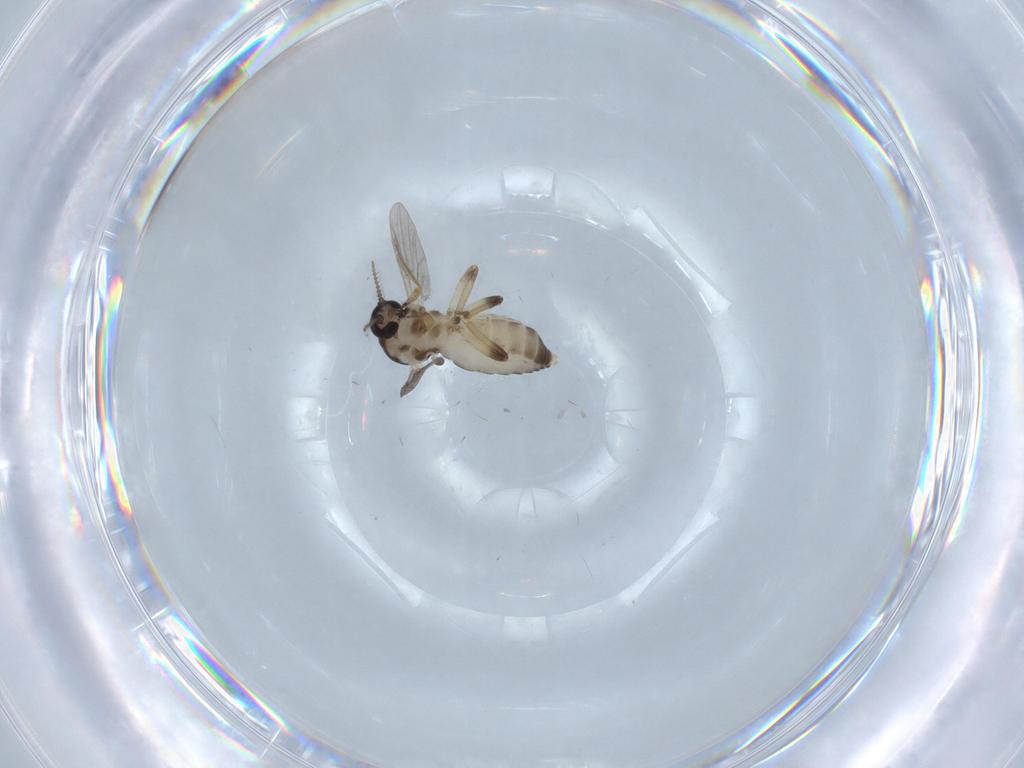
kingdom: Animalia
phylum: Arthropoda
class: Insecta
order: Diptera
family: Ceratopogonidae
